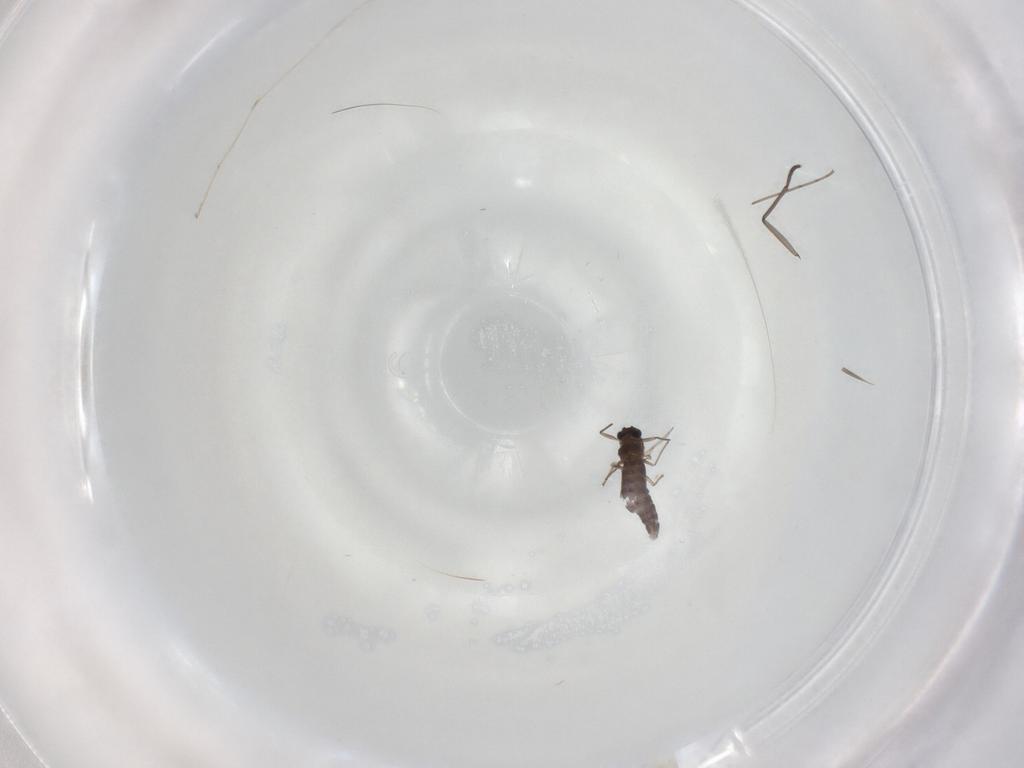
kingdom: Animalia
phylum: Arthropoda
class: Insecta
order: Diptera
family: Chironomidae
